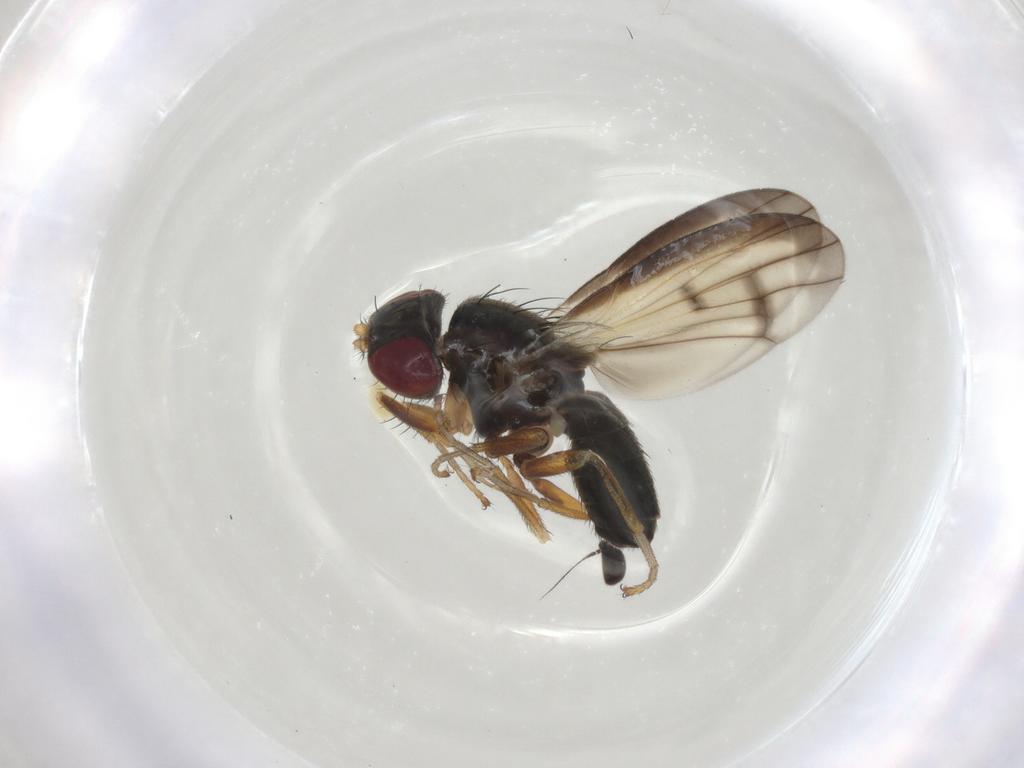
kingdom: Animalia
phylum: Arthropoda
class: Insecta
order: Diptera
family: Chamaemyiidae
